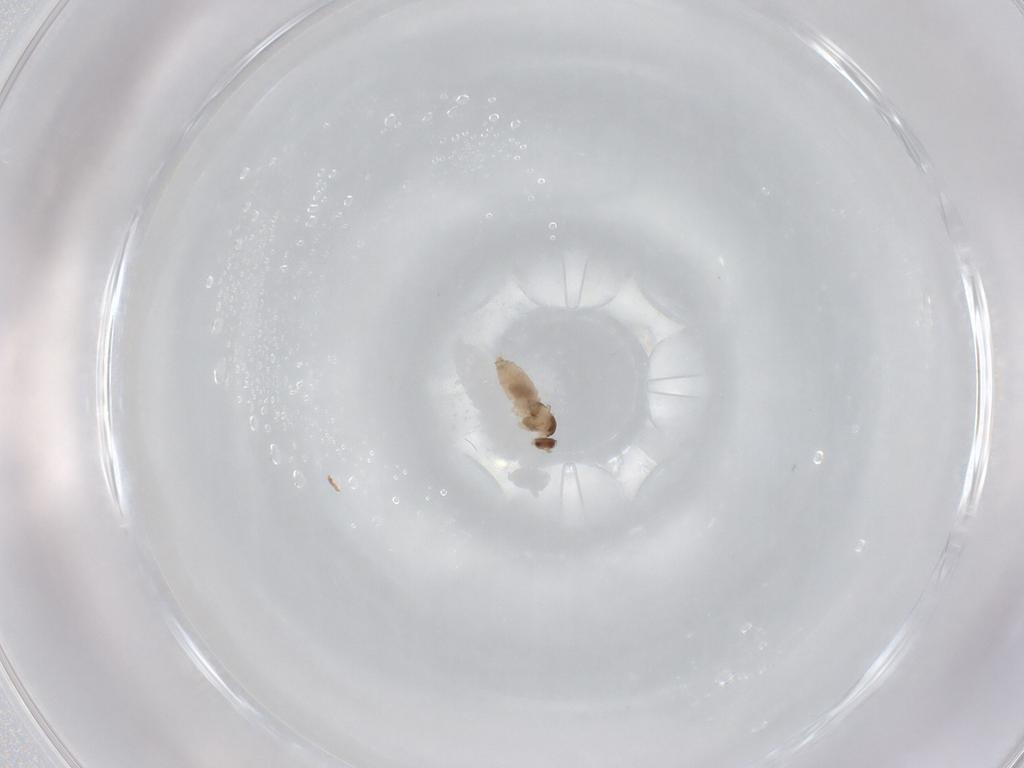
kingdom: Animalia
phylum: Arthropoda
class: Insecta
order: Diptera
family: Cecidomyiidae
